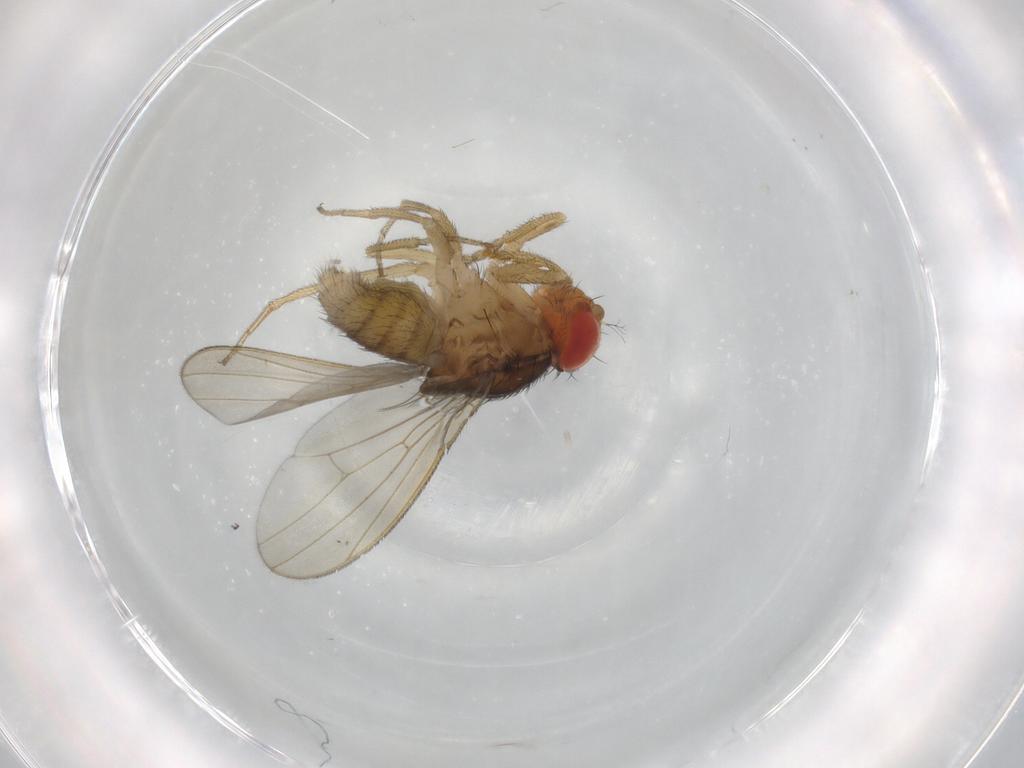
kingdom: Animalia
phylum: Arthropoda
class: Insecta
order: Diptera
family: Drosophilidae
